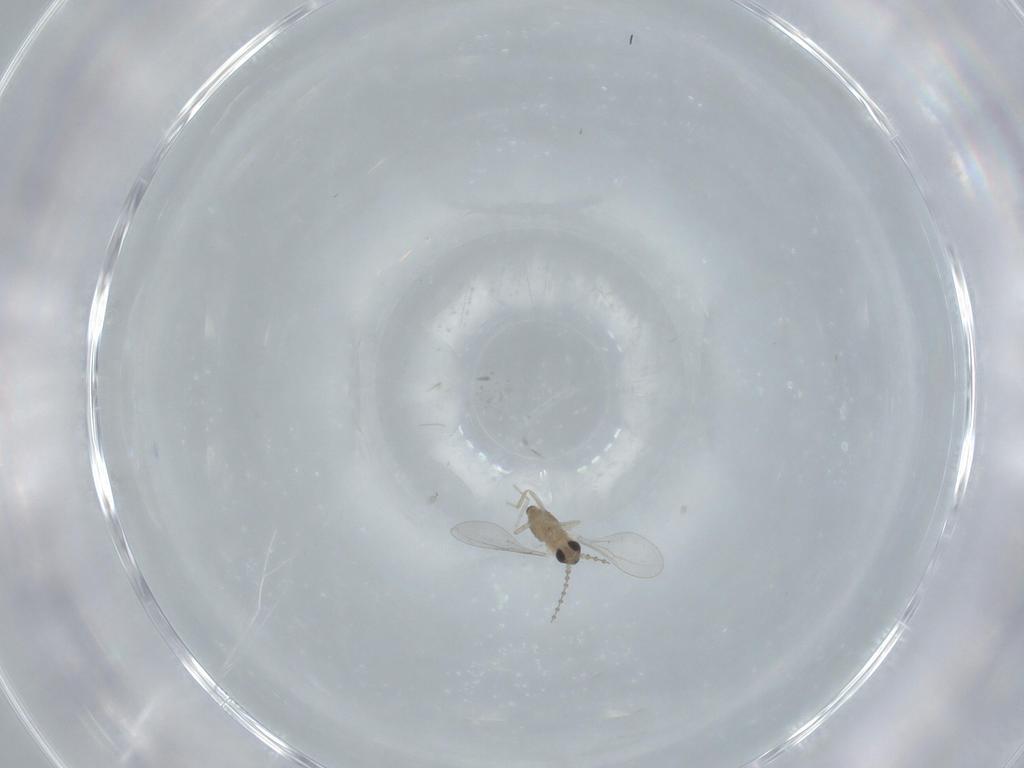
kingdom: Animalia
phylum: Arthropoda
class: Insecta
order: Diptera
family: Cecidomyiidae
